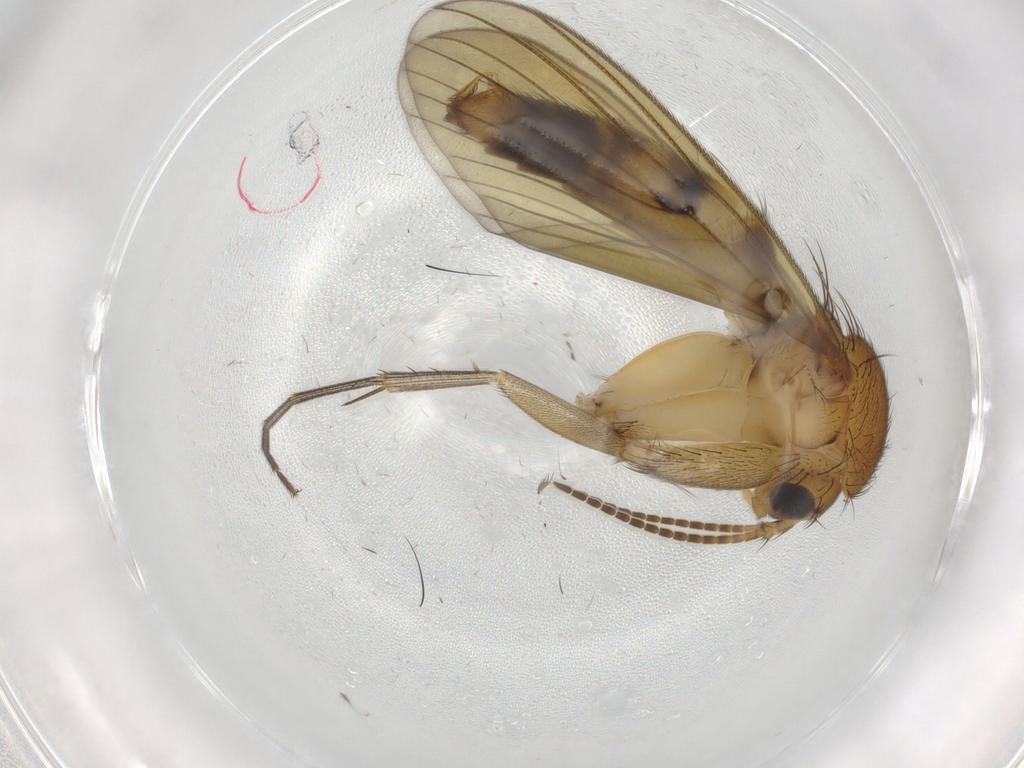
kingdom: Animalia
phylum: Arthropoda
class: Insecta
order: Diptera
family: Mycetophilidae
